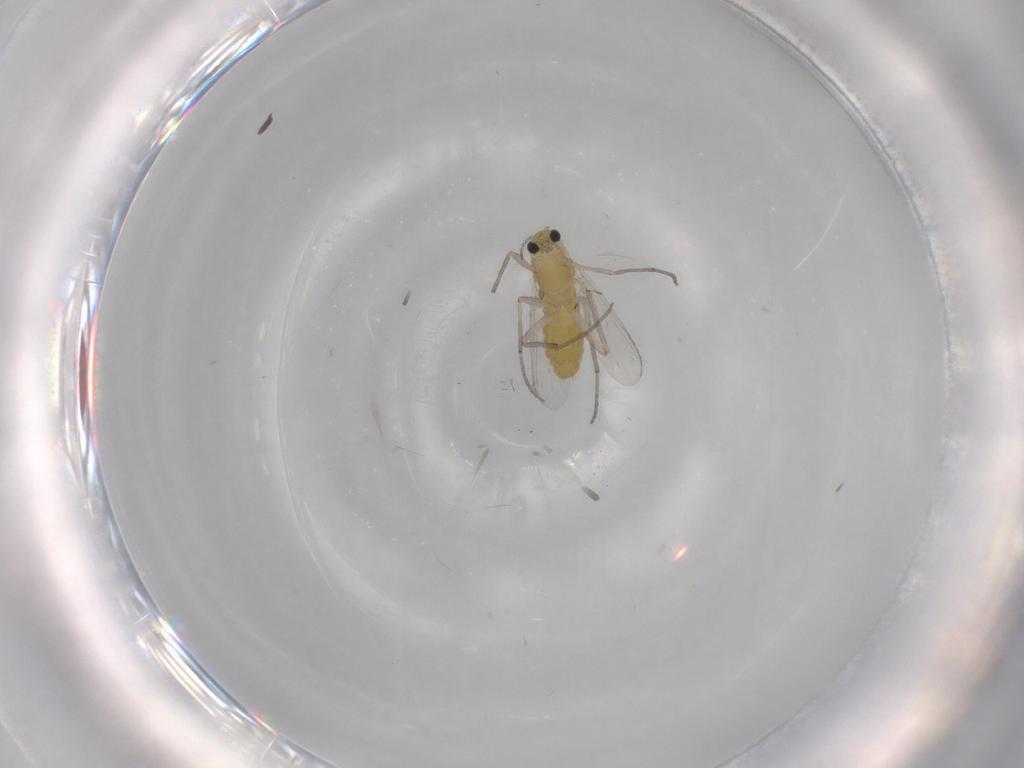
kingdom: Animalia
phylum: Arthropoda
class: Insecta
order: Diptera
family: Chironomidae
